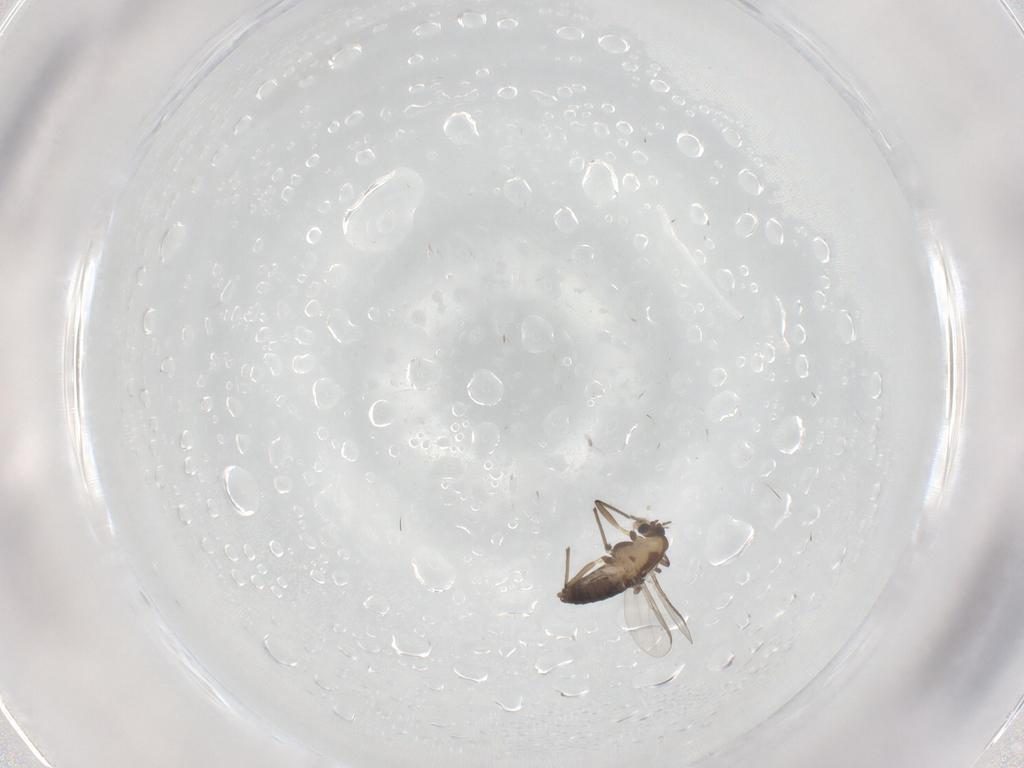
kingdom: Animalia
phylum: Arthropoda
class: Insecta
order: Diptera
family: Chironomidae
